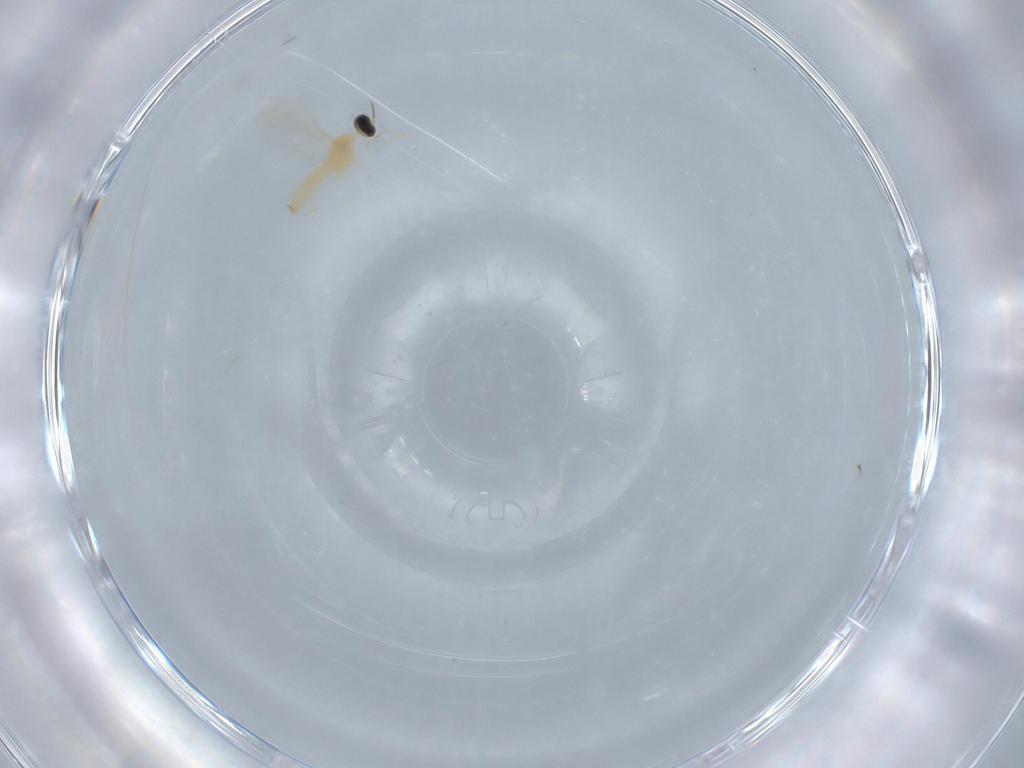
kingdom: Animalia
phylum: Arthropoda
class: Insecta
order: Diptera
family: Cecidomyiidae
